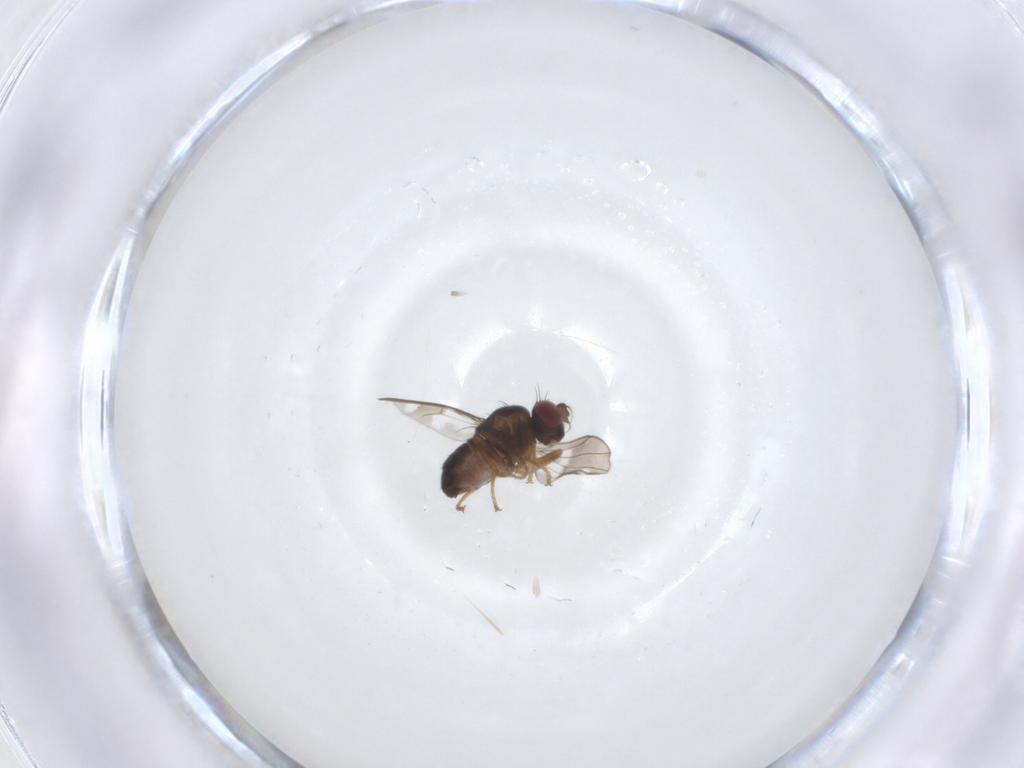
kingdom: Animalia
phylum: Arthropoda
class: Insecta
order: Diptera
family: Ephydridae
